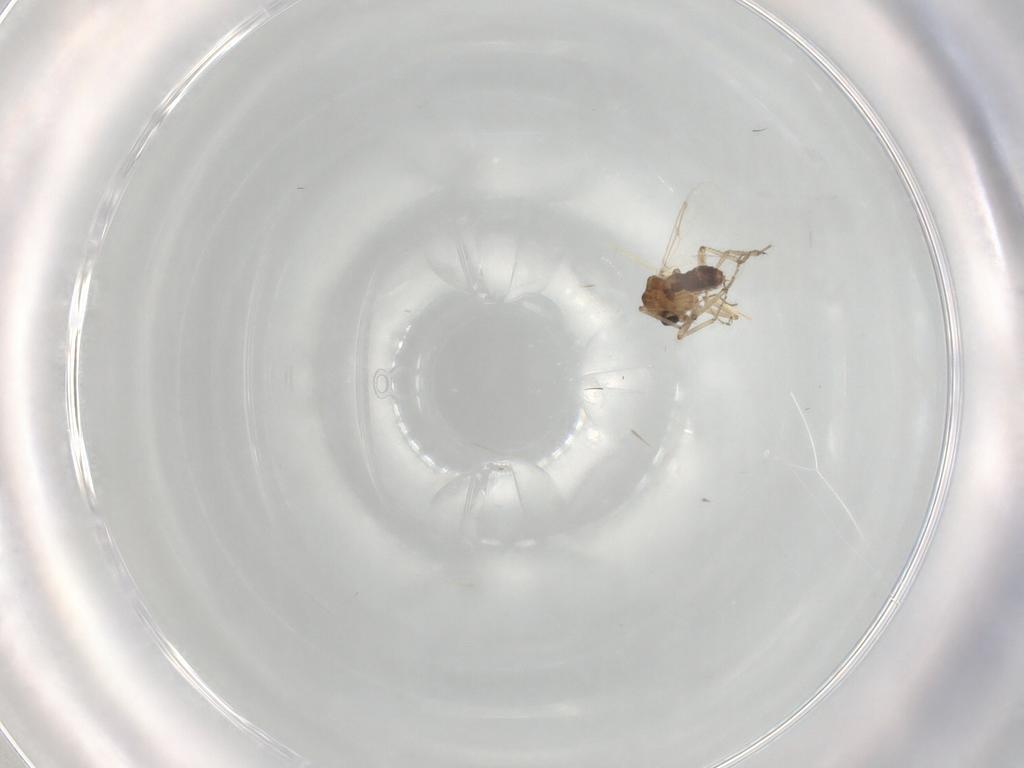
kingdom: Animalia
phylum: Arthropoda
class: Insecta
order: Diptera
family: Ceratopogonidae
